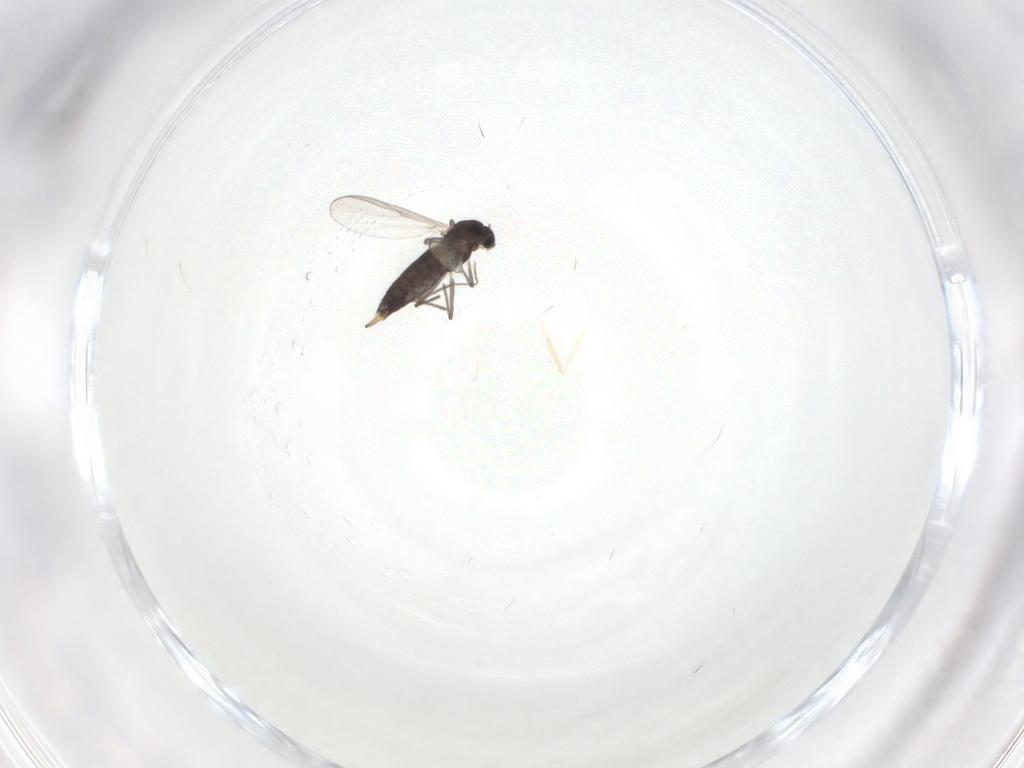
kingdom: Animalia
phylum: Arthropoda
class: Insecta
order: Diptera
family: Chironomidae
